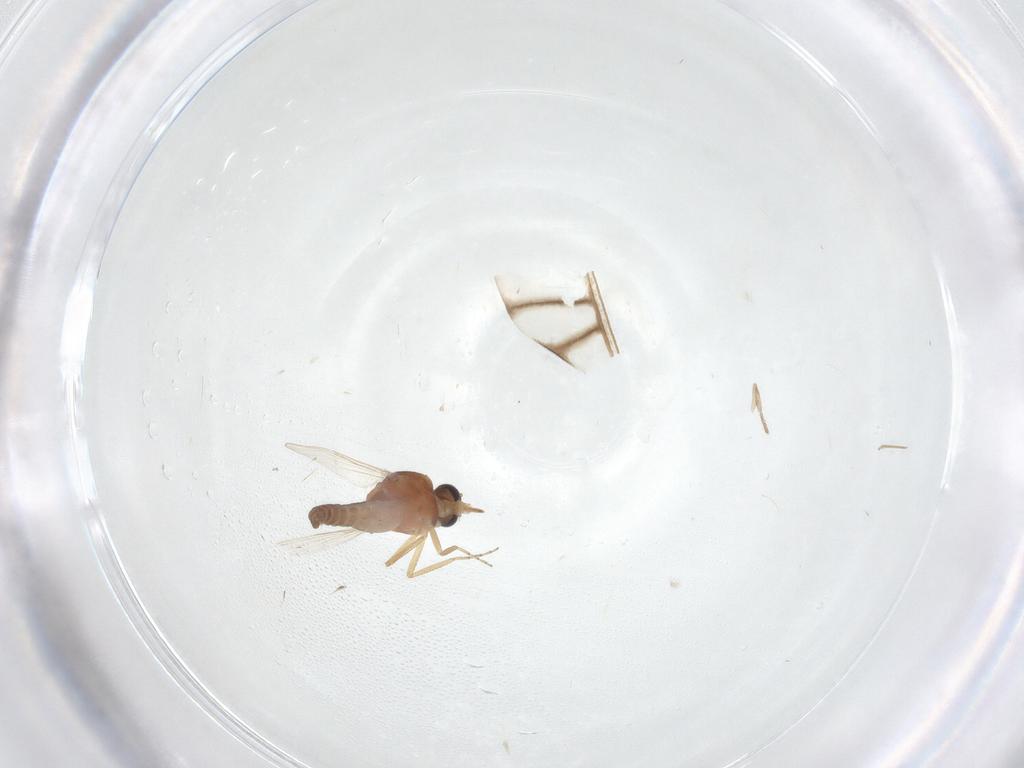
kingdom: Animalia
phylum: Arthropoda
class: Insecta
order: Diptera
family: Ceratopogonidae
